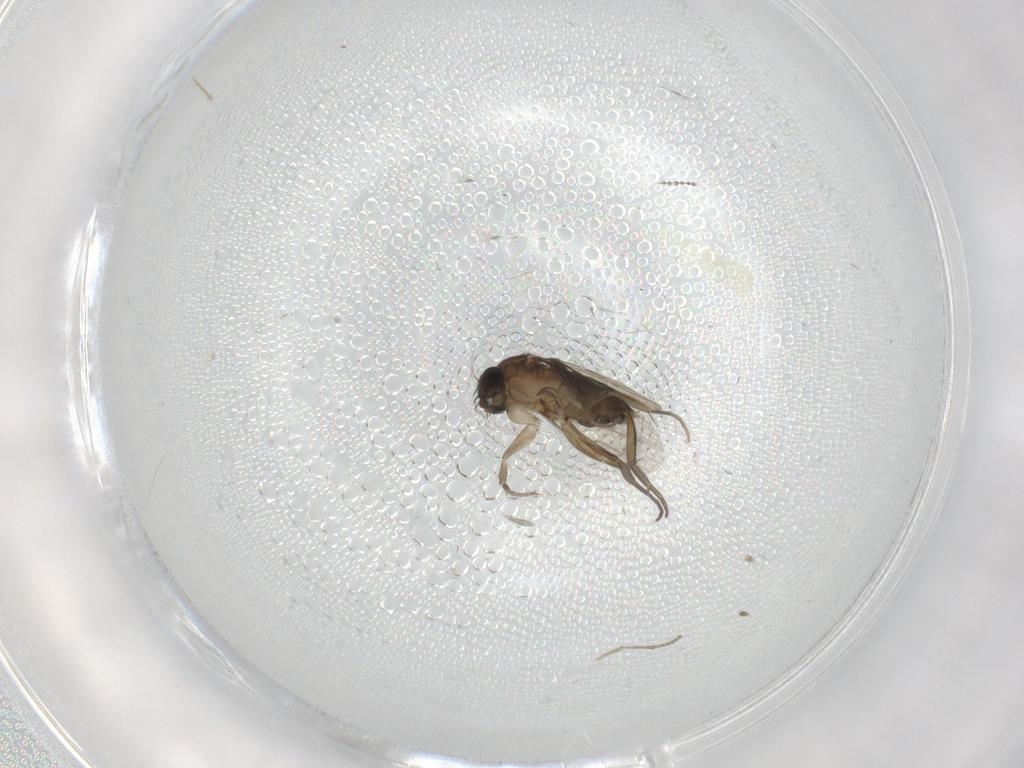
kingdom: Animalia
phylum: Arthropoda
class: Insecta
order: Diptera
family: Phoridae
